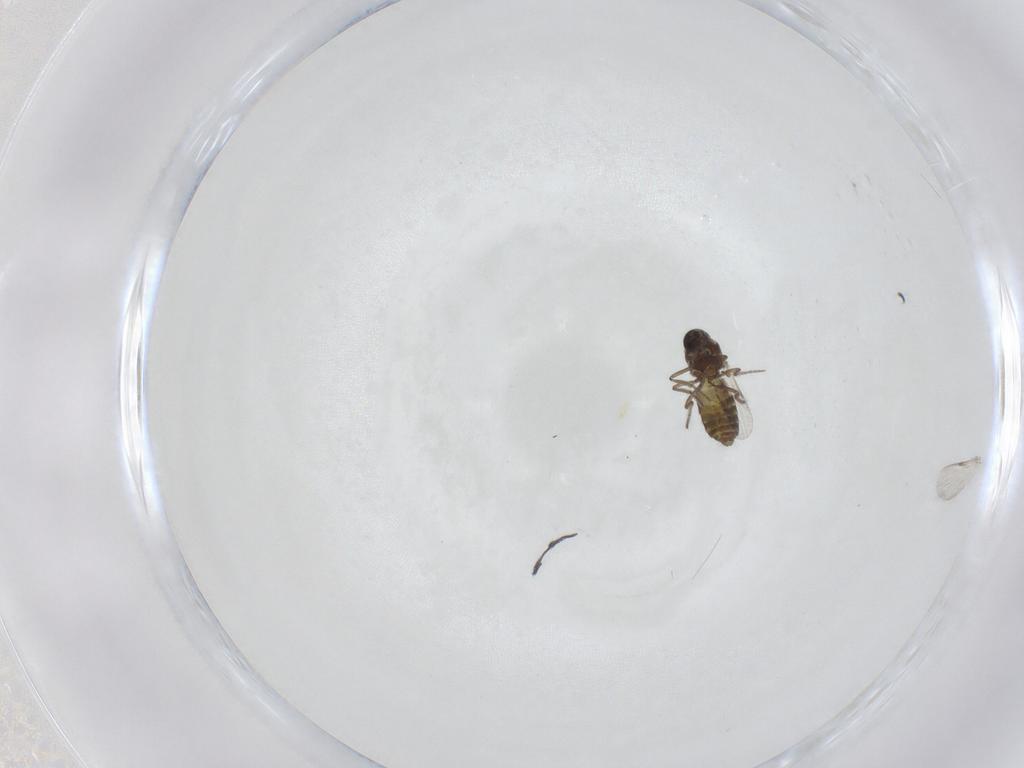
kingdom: Animalia
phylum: Arthropoda
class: Insecta
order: Diptera
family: Ceratopogonidae
